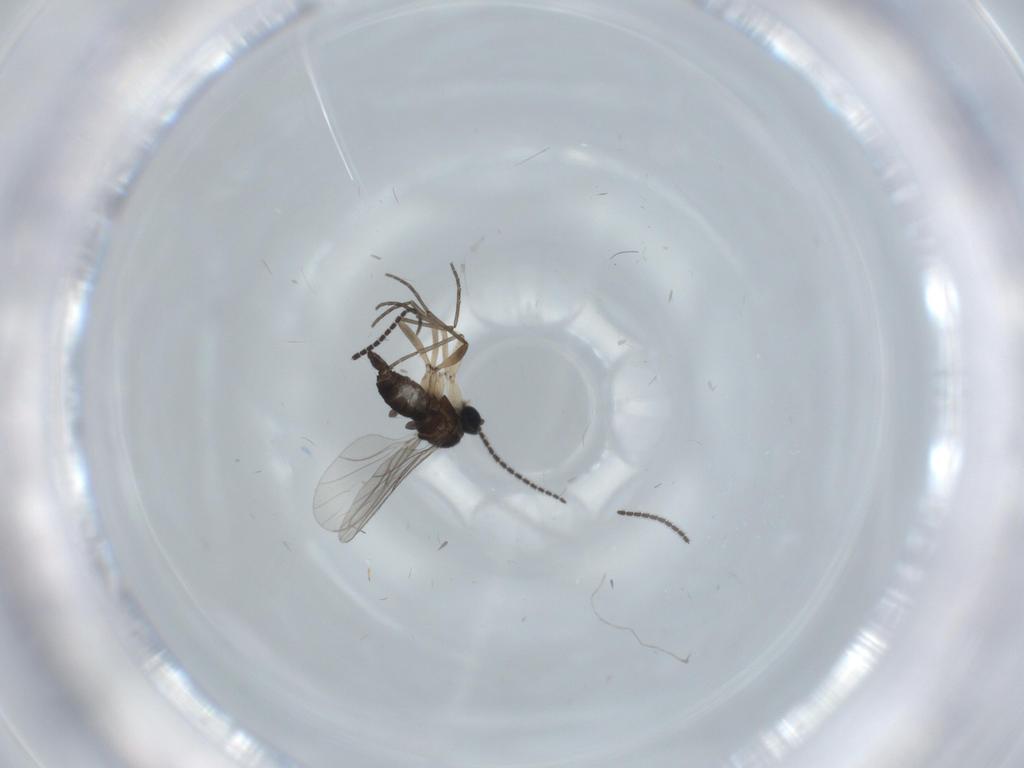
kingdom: Animalia
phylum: Arthropoda
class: Insecta
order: Diptera
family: Sciaridae
